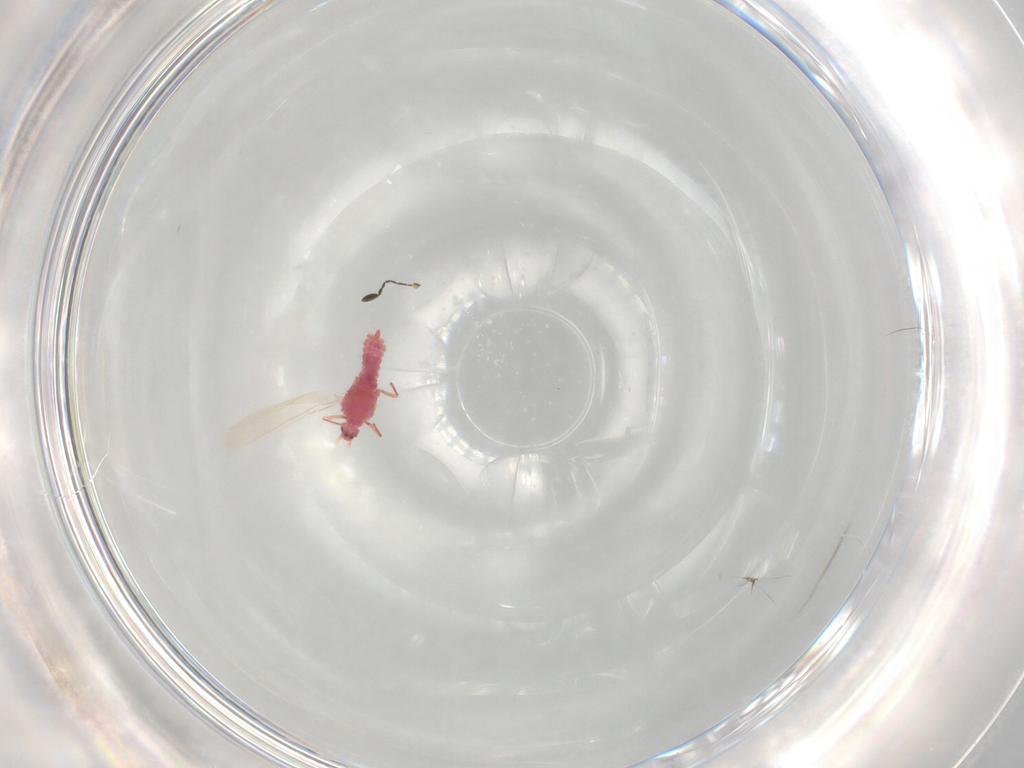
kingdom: Animalia
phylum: Arthropoda
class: Insecta
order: Hemiptera
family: Pseudococcidae
